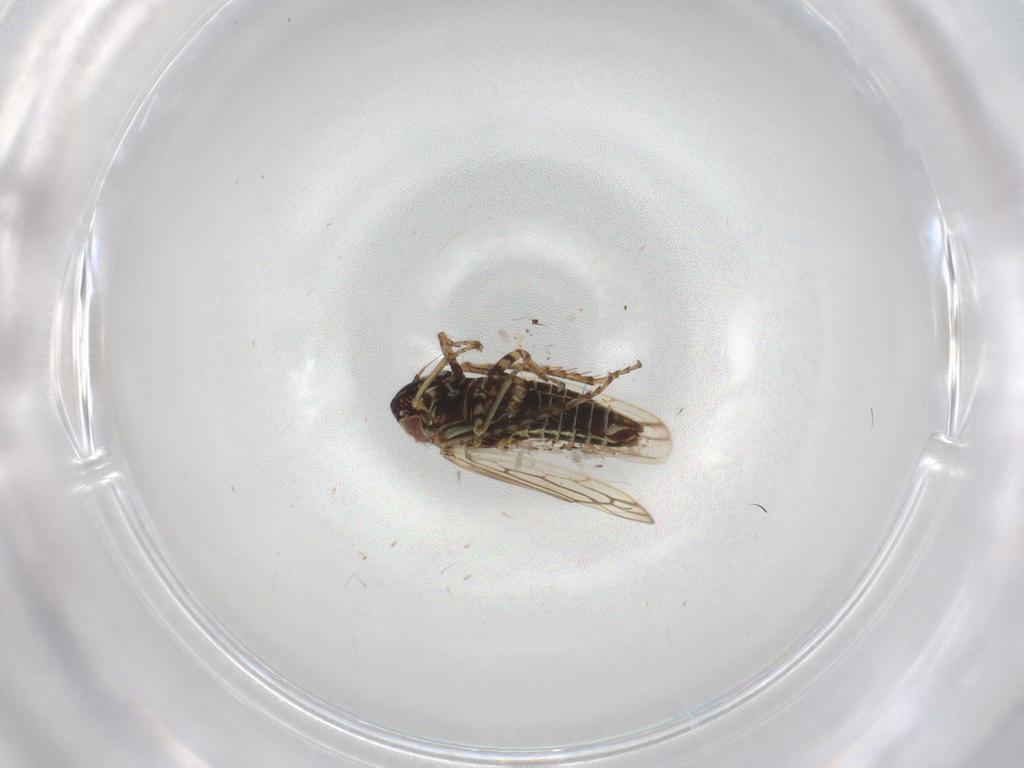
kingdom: Animalia
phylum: Arthropoda
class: Insecta
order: Hemiptera
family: Cicadellidae
